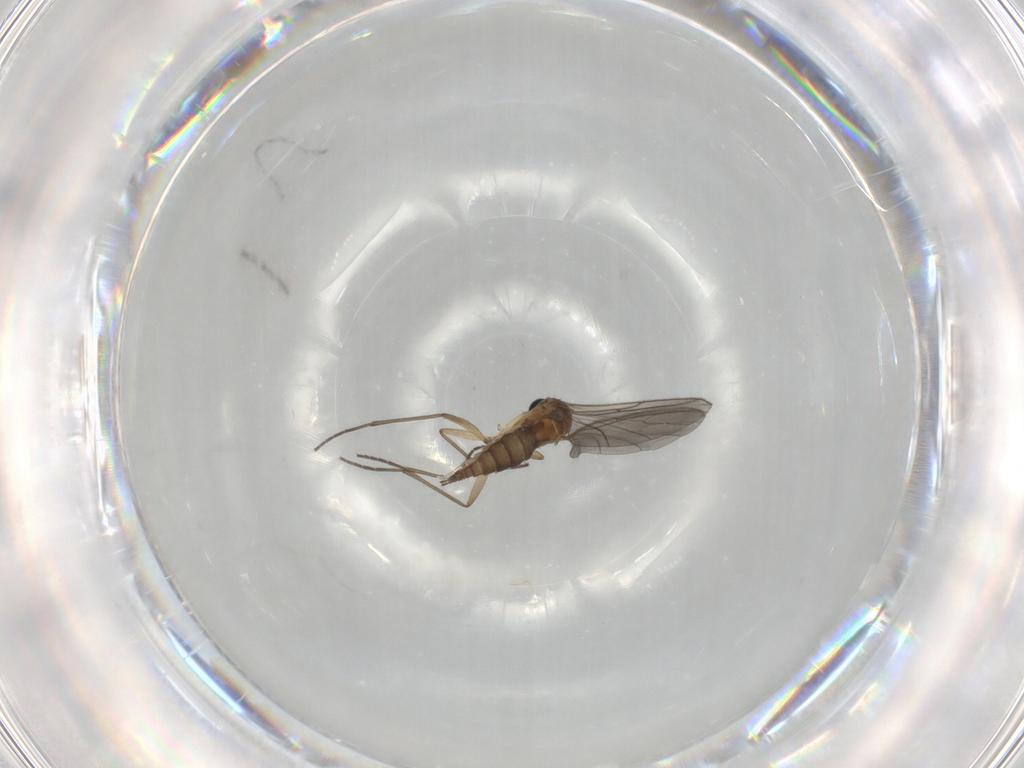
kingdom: Animalia
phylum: Arthropoda
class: Insecta
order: Diptera
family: Sciaridae
